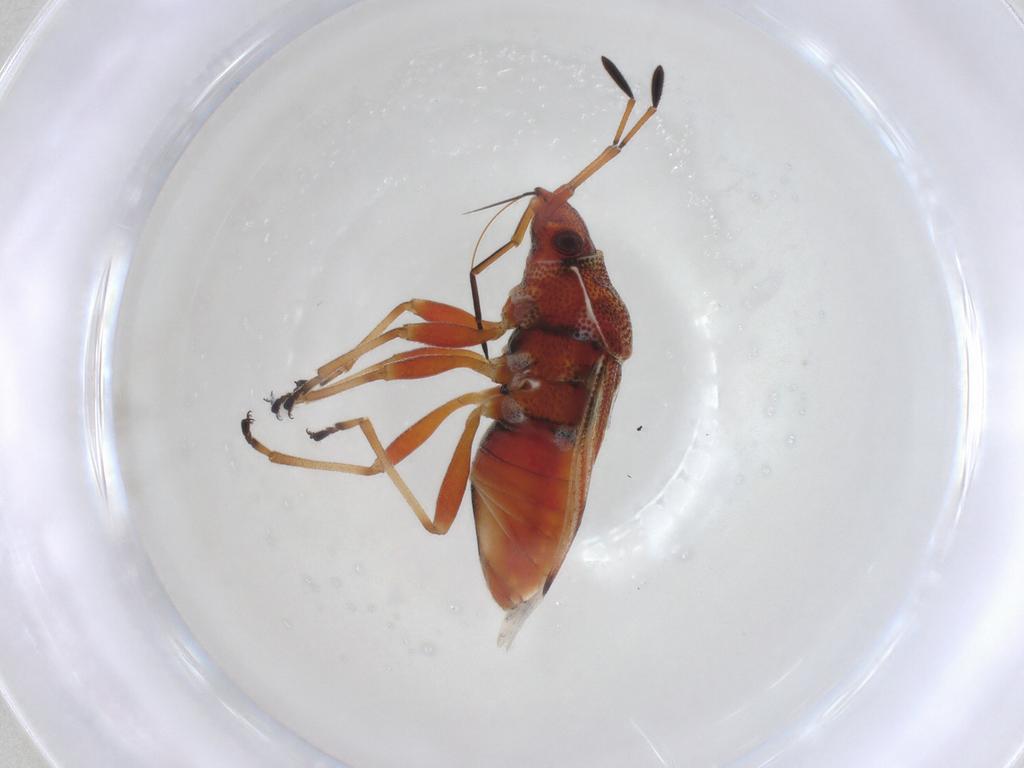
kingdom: Animalia
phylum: Arthropoda
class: Insecta
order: Hemiptera
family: Lygaeidae
